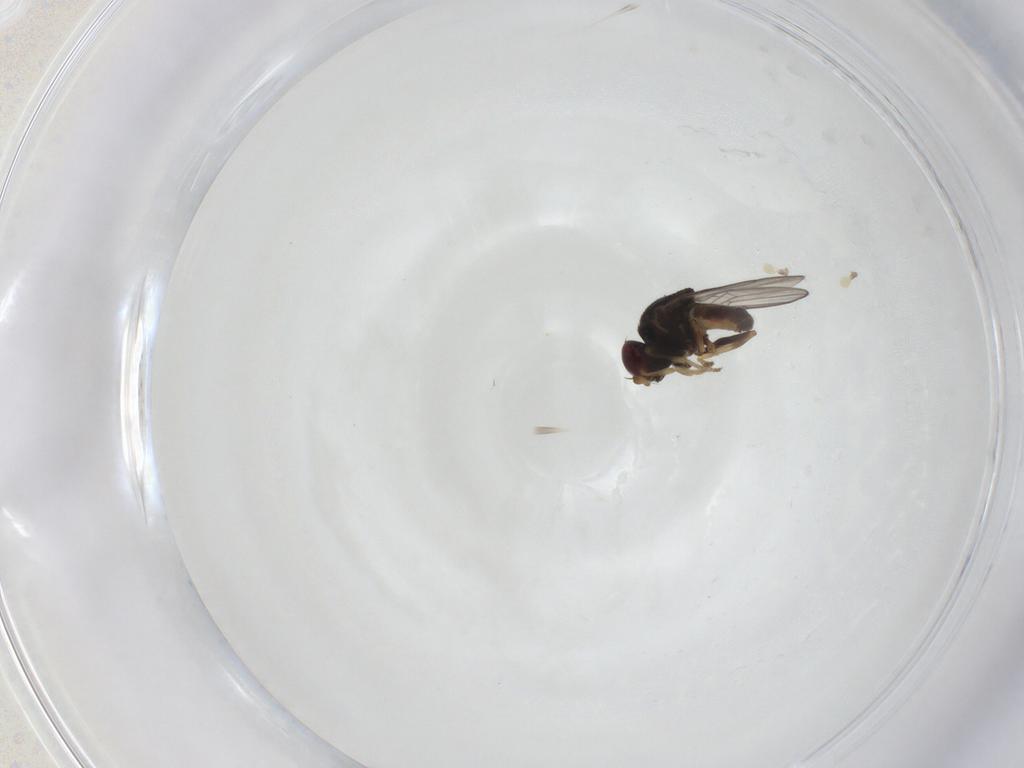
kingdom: Animalia
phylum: Arthropoda
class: Insecta
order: Diptera
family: Chloropidae
